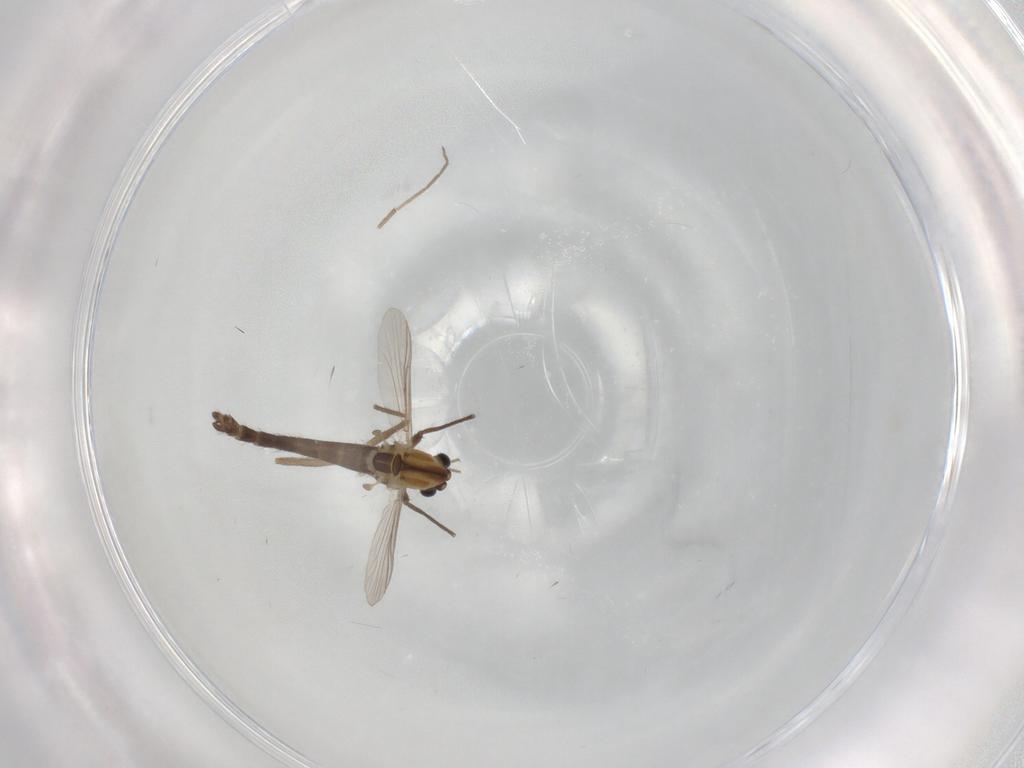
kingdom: Animalia
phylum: Arthropoda
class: Insecta
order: Diptera
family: Chironomidae
